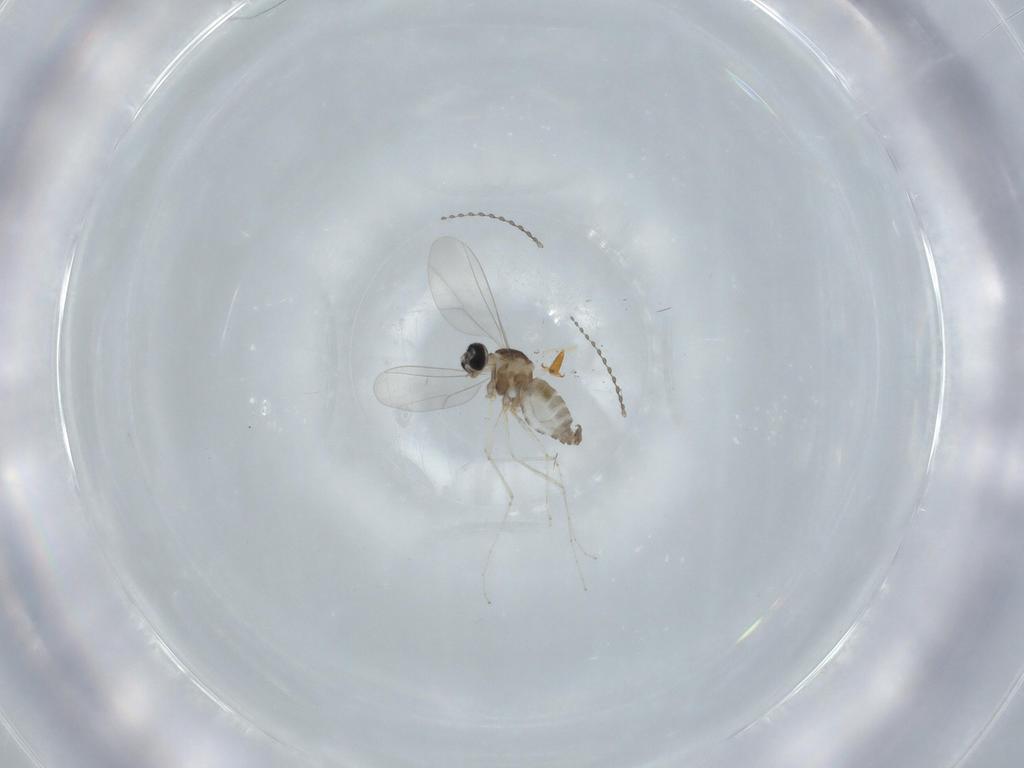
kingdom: Animalia
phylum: Arthropoda
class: Insecta
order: Diptera
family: Cecidomyiidae
